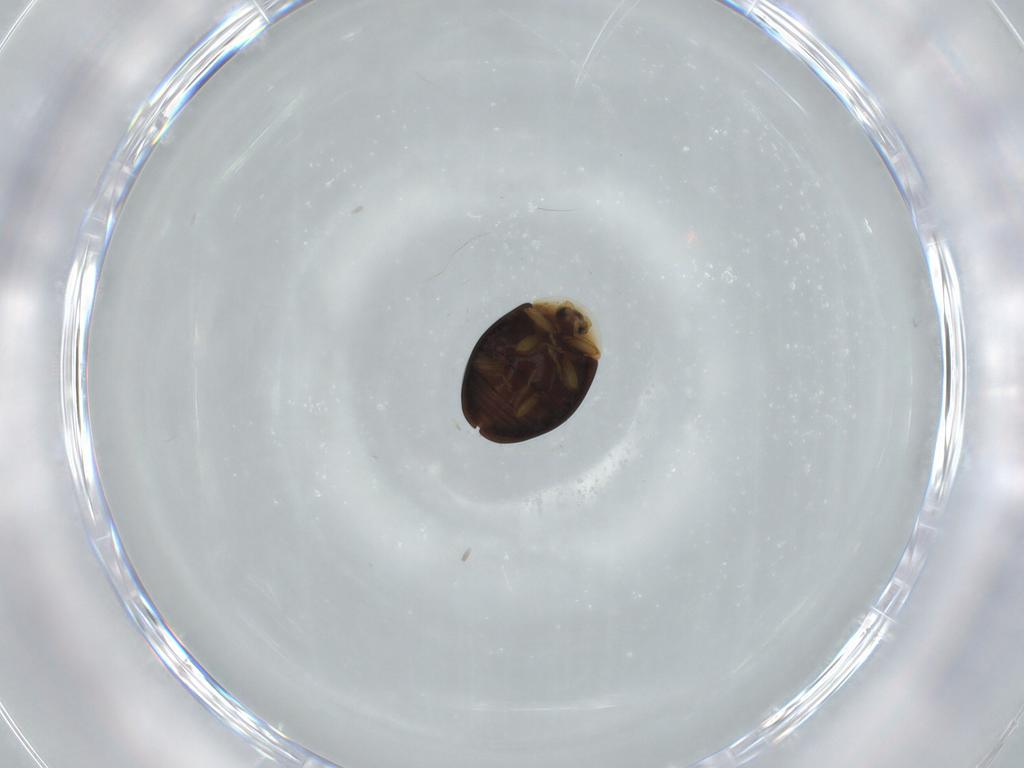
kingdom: Animalia
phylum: Arthropoda
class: Insecta
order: Coleoptera
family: Corylophidae
